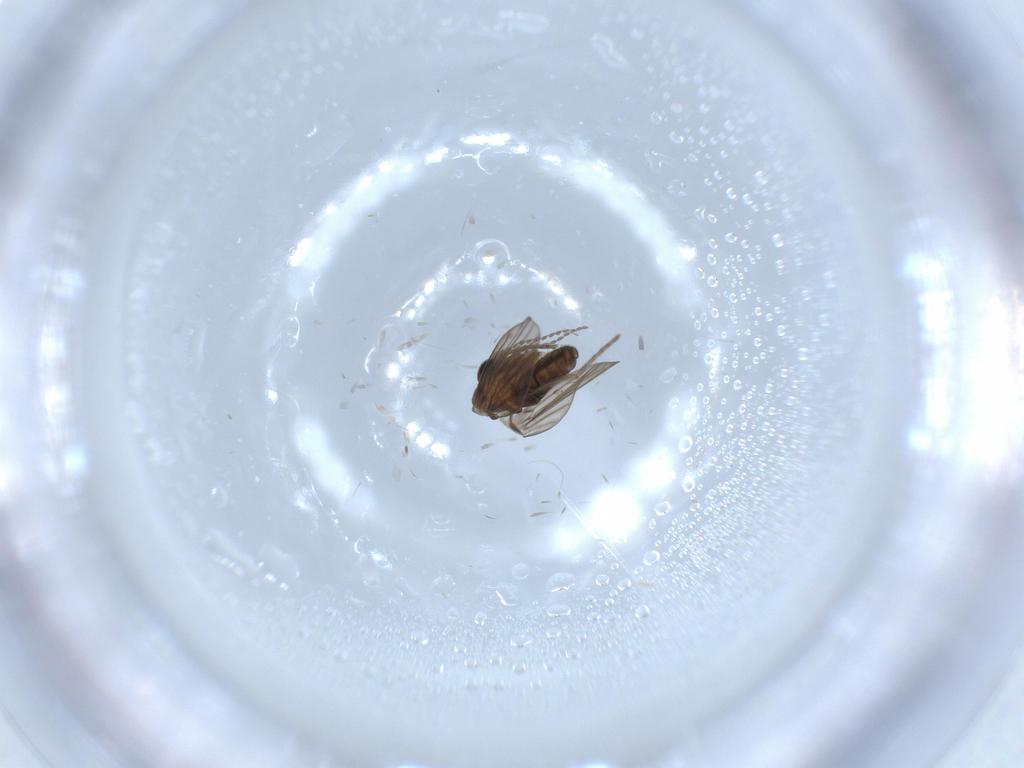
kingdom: Animalia
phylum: Arthropoda
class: Insecta
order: Diptera
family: Psychodidae
